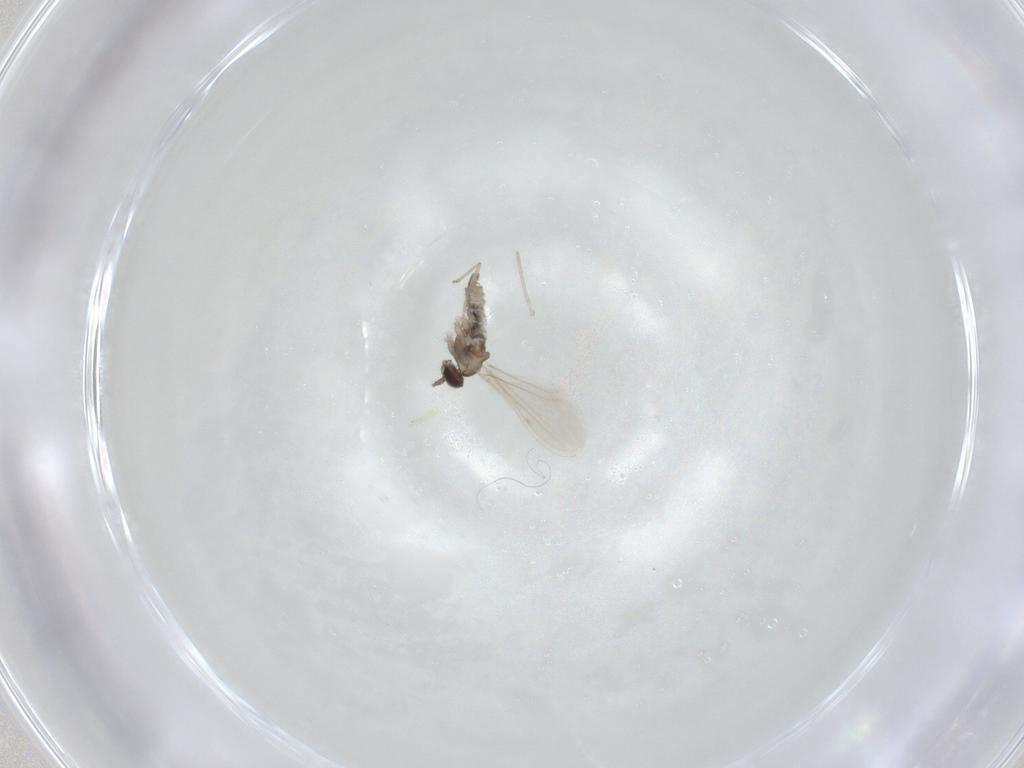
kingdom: Animalia
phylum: Arthropoda
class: Insecta
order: Diptera
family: Cecidomyiidae
